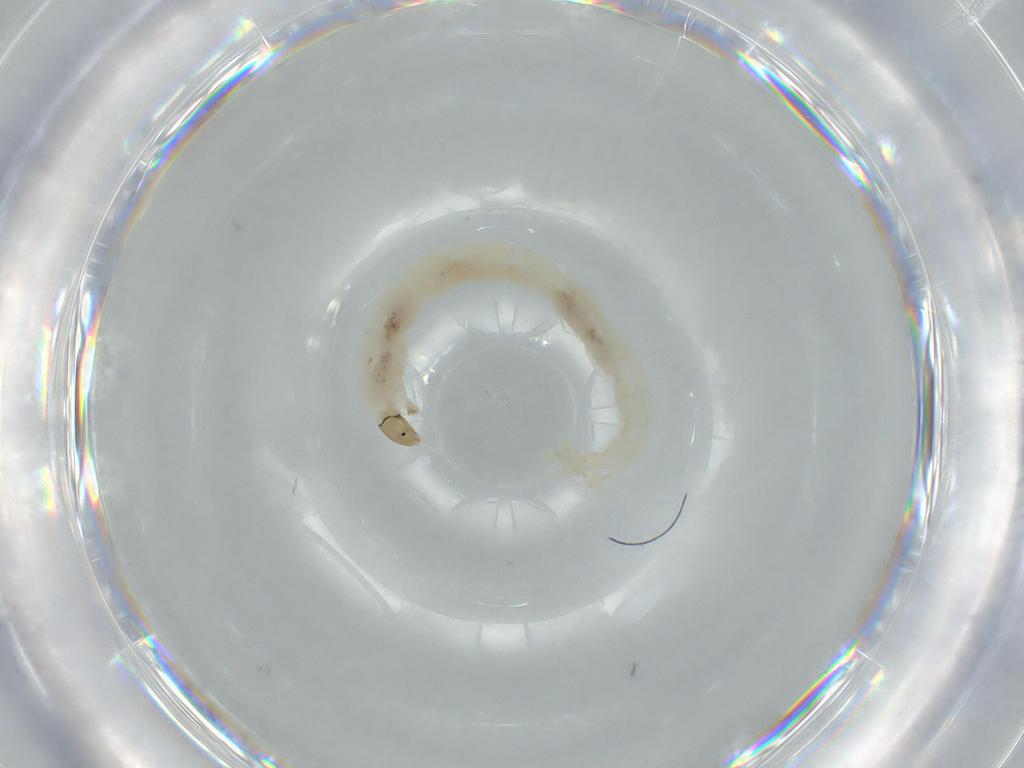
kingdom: Animalia
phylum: Arthropoda
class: Insecta
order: Diptera
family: Chironomidae
